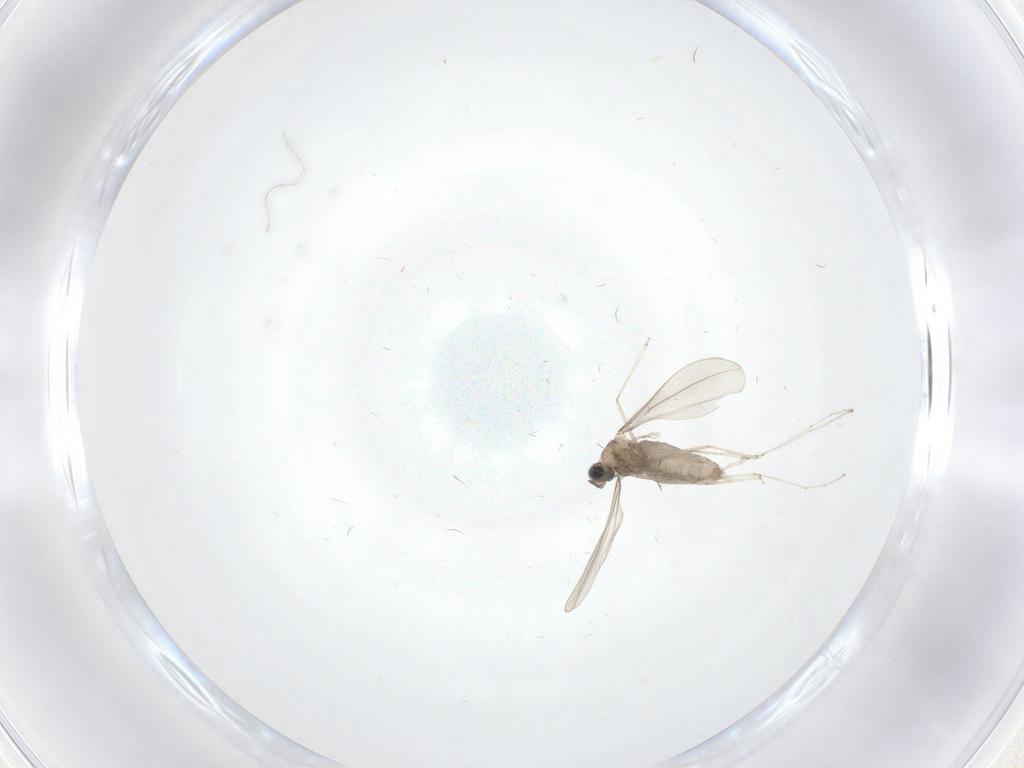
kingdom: Animalia
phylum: Arthropoda
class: Insecta
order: Diptera
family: Cecidomyiidae
